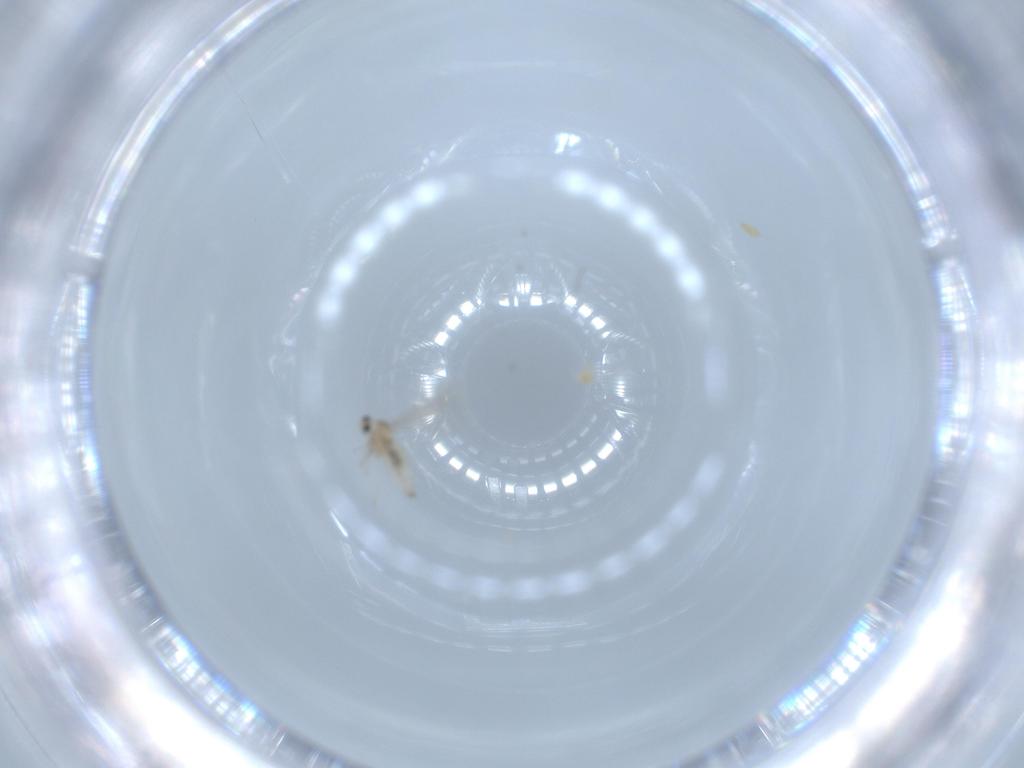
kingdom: Animalia
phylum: Arthropoda
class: Insecta
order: Diptera
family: Cecidomyiidae
